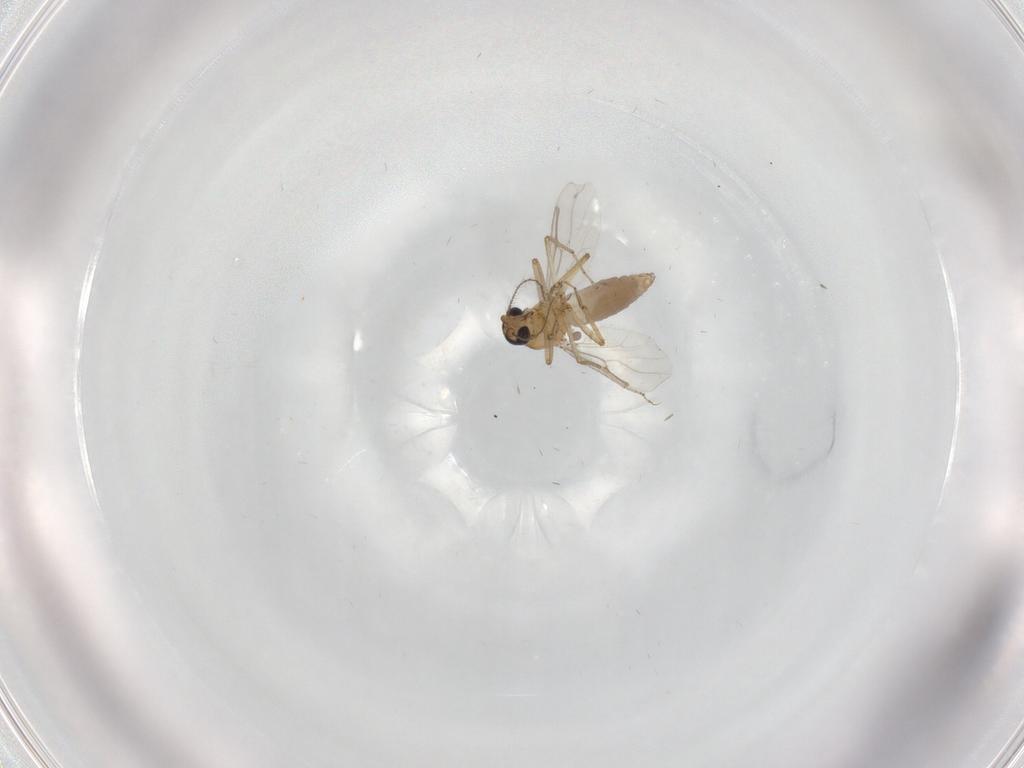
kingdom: Animalia
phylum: Arthropoda
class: Insecta
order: Diptera
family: Ceratopogonidae
